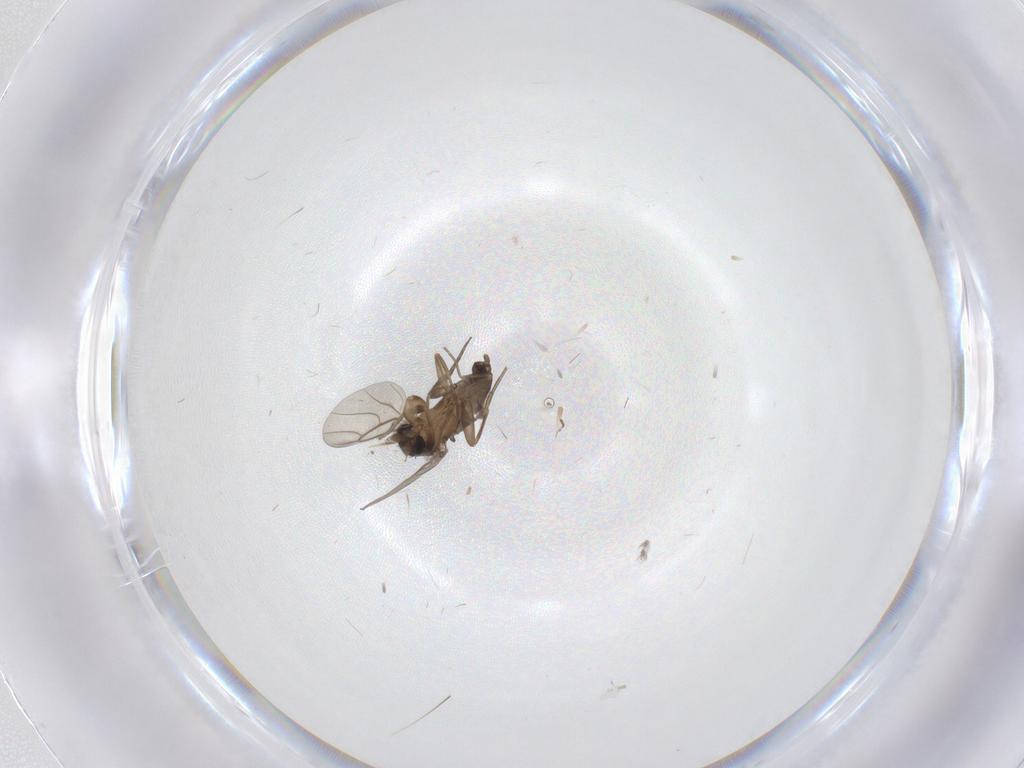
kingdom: Animalia
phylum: Arthropoda
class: Insecta
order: Diptera
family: Phoridae
